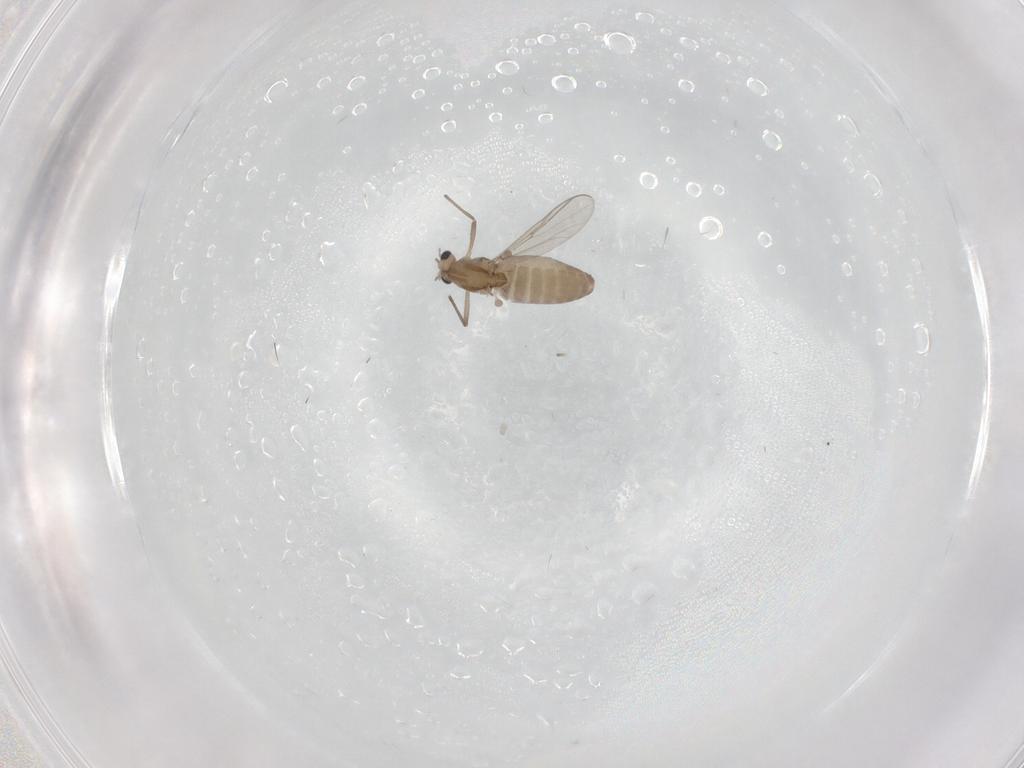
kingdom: Animalia
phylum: Arthropoda
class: Insecta
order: Diptera
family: Chironomidae
